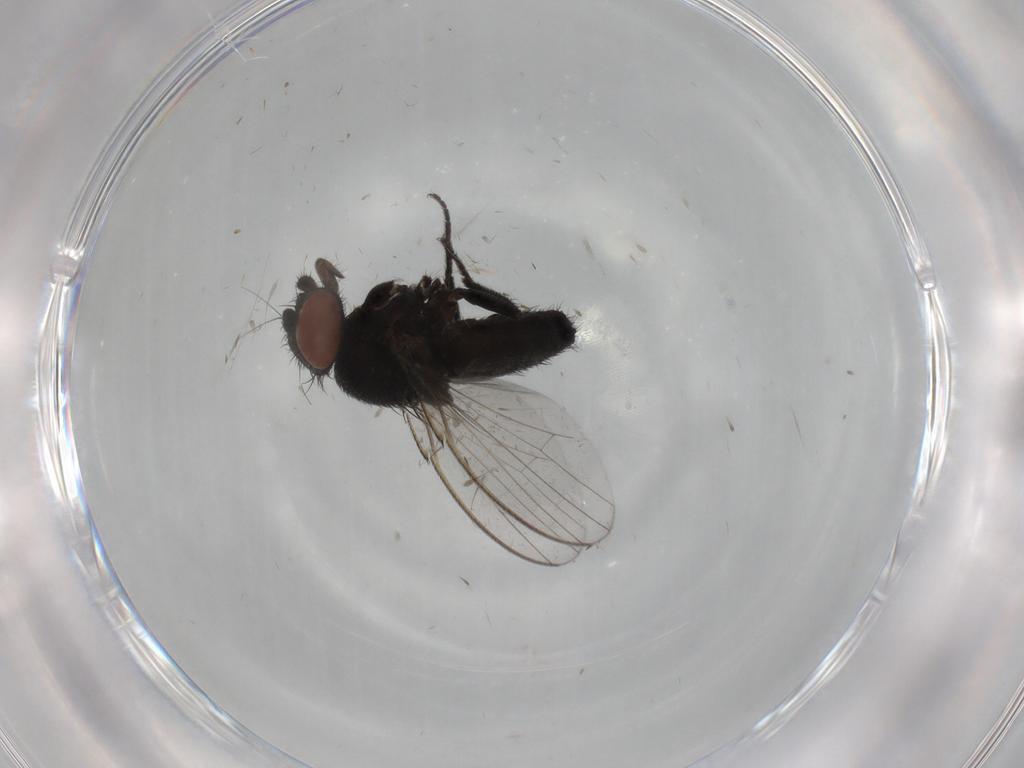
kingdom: Animalia
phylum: Arthropoda
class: Insecta
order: Diptera
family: Milichiidae
